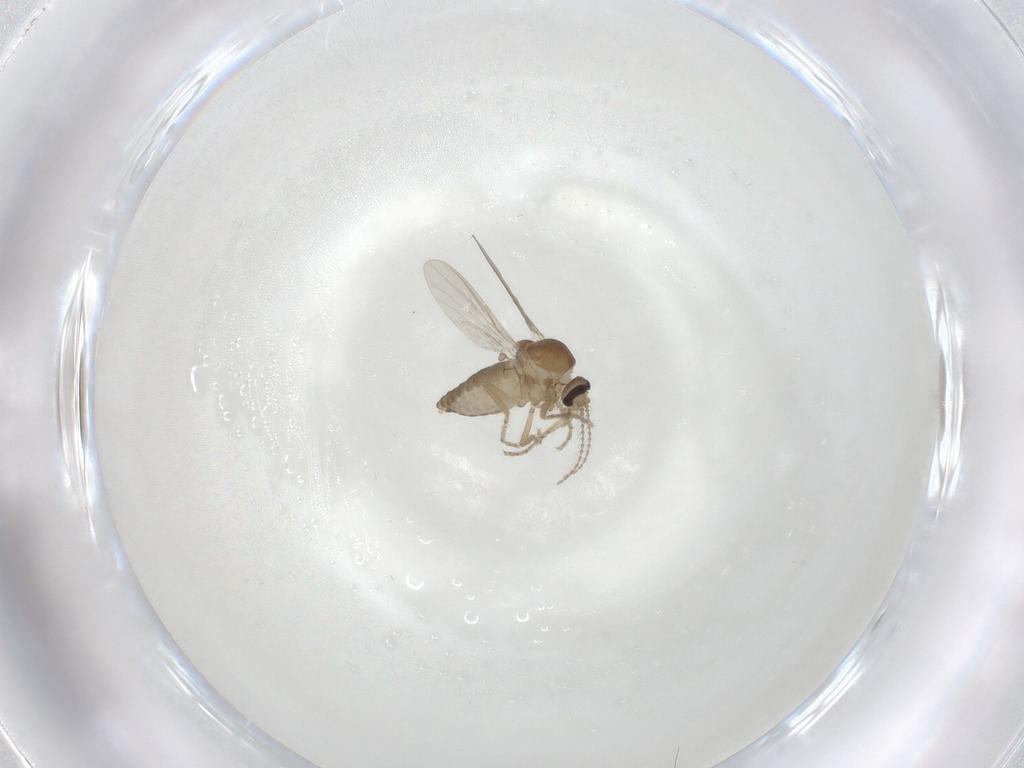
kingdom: Animalia
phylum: Arthropoda
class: Insecta
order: Diptera
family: Ceratopogonidae
